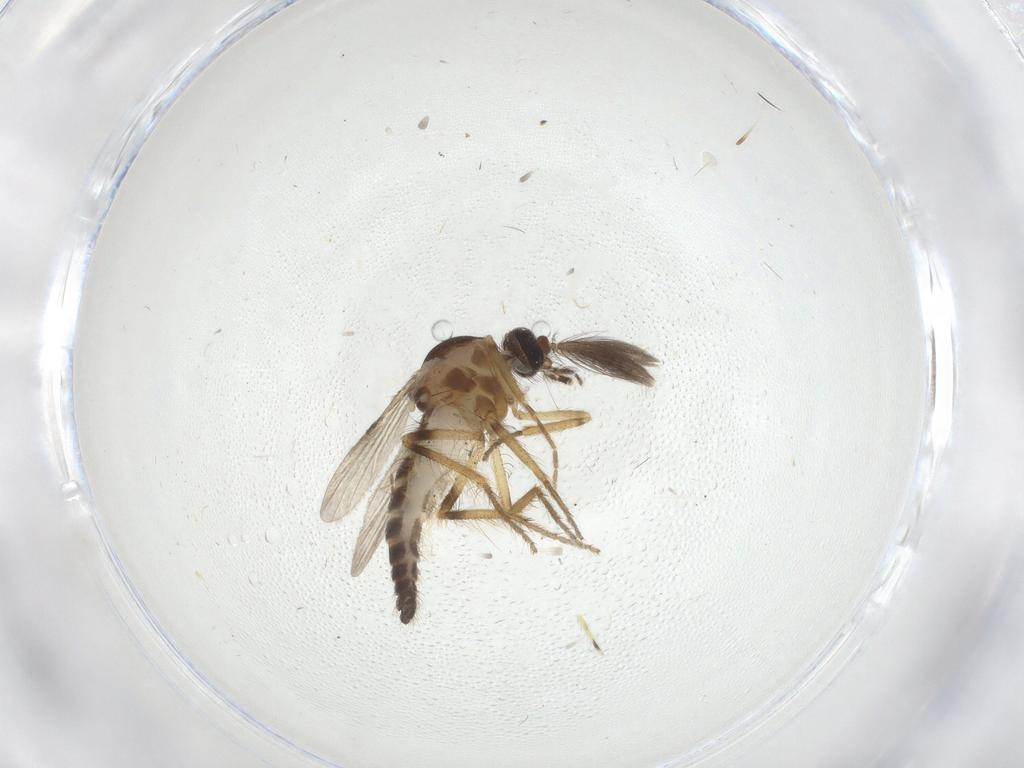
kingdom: Animalia
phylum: Arthropoda
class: Insecta
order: Diptera
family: Ceratopogonidae
